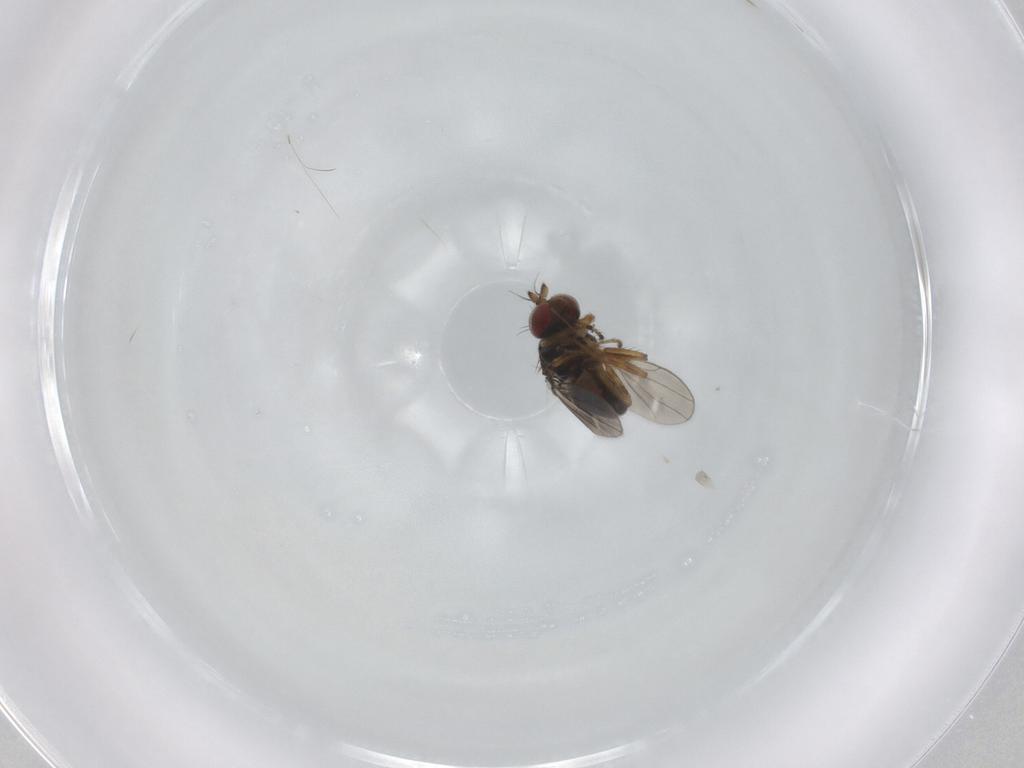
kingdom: Animalia
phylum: Arthropoda
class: Insecta
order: Diptera
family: Ephydridae
